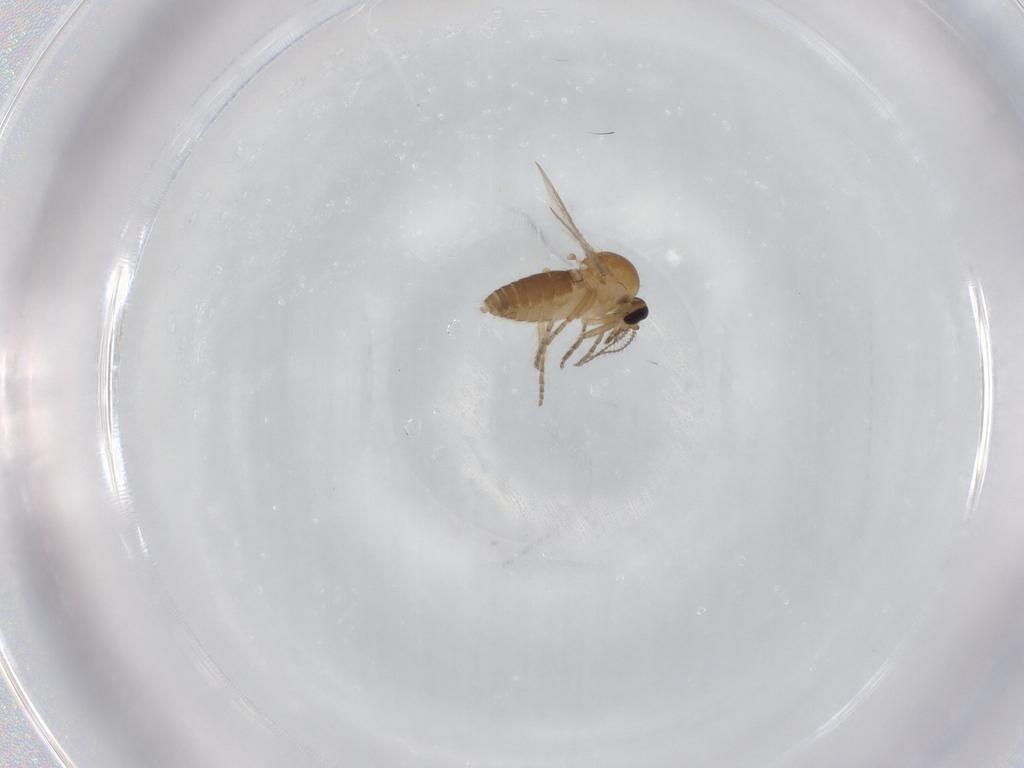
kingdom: Animalia
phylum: Arthropoda
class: Insecta
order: Diptera
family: Ceratopogonidae
